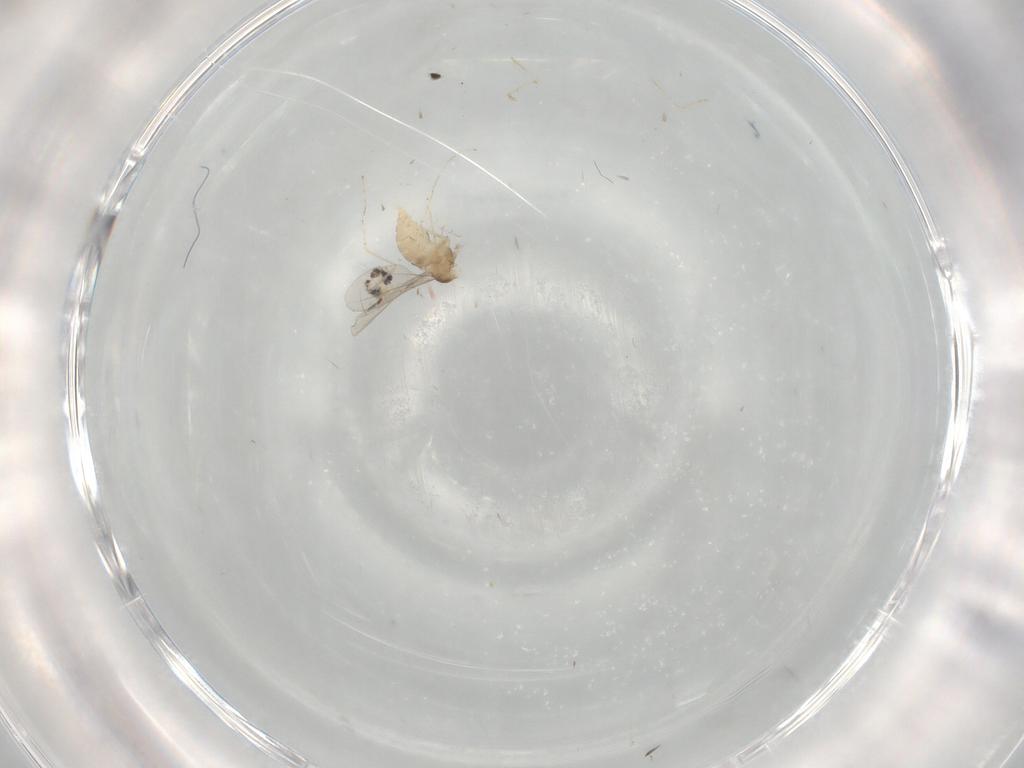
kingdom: Animalia
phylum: Arthropoda
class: Insecta
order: Diptera
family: Cecidomyiidae
